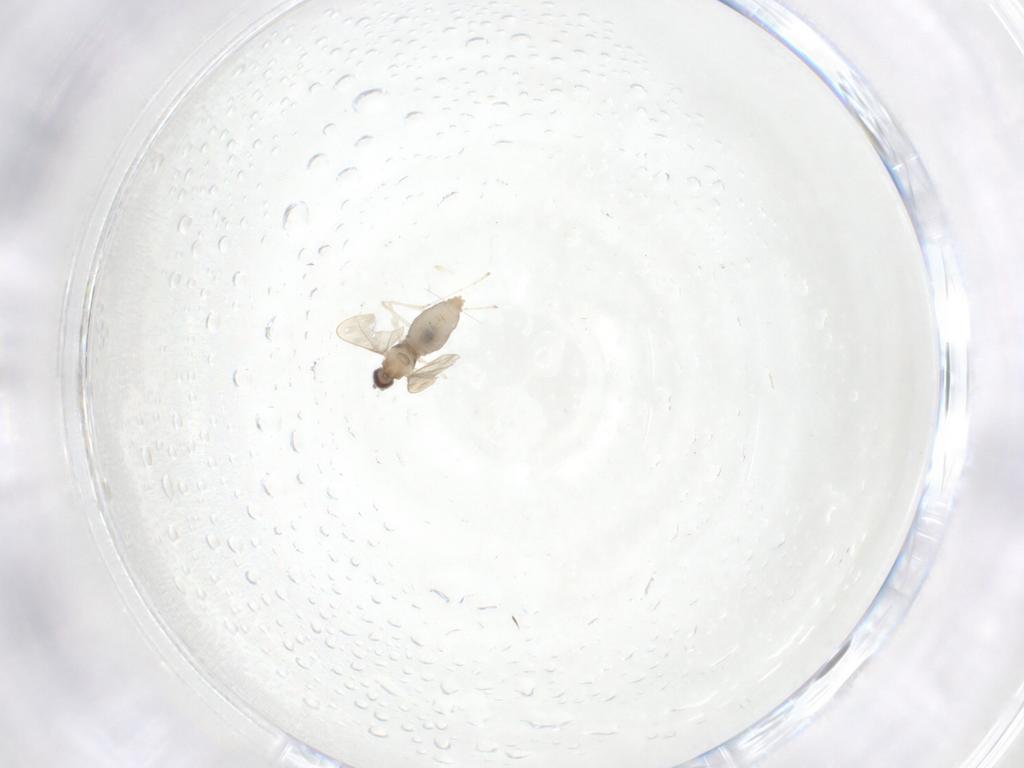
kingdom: Animalia
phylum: Arthropoda
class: Insecta
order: Diptera
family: Cecidomyiidae
